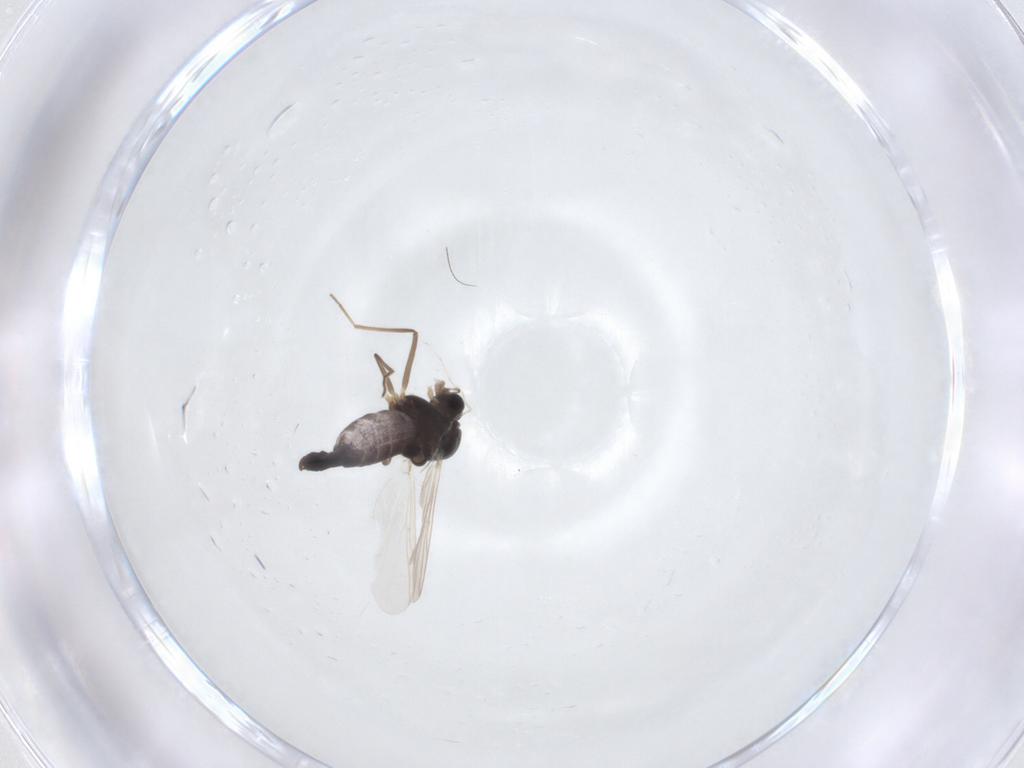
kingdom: Animalia
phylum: Arthropoda
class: Insecta
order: Diptera
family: Chironomidae
